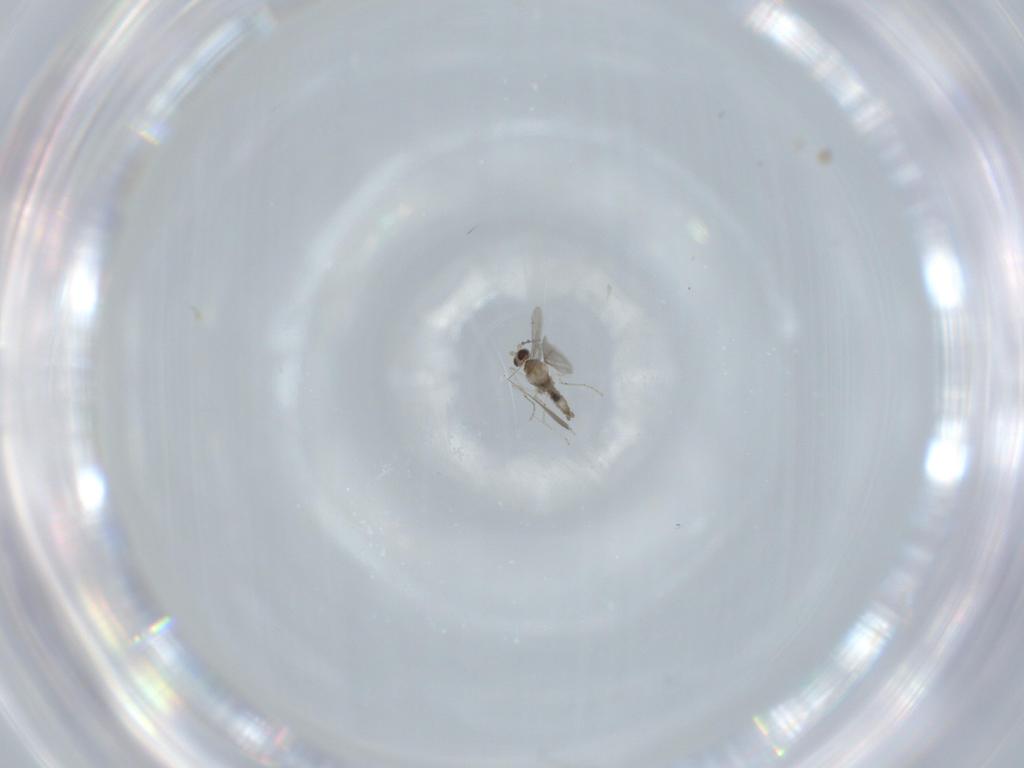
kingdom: Animalia
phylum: Arthropoda
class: Insecta
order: Diptera
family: Cecidomyiidae
